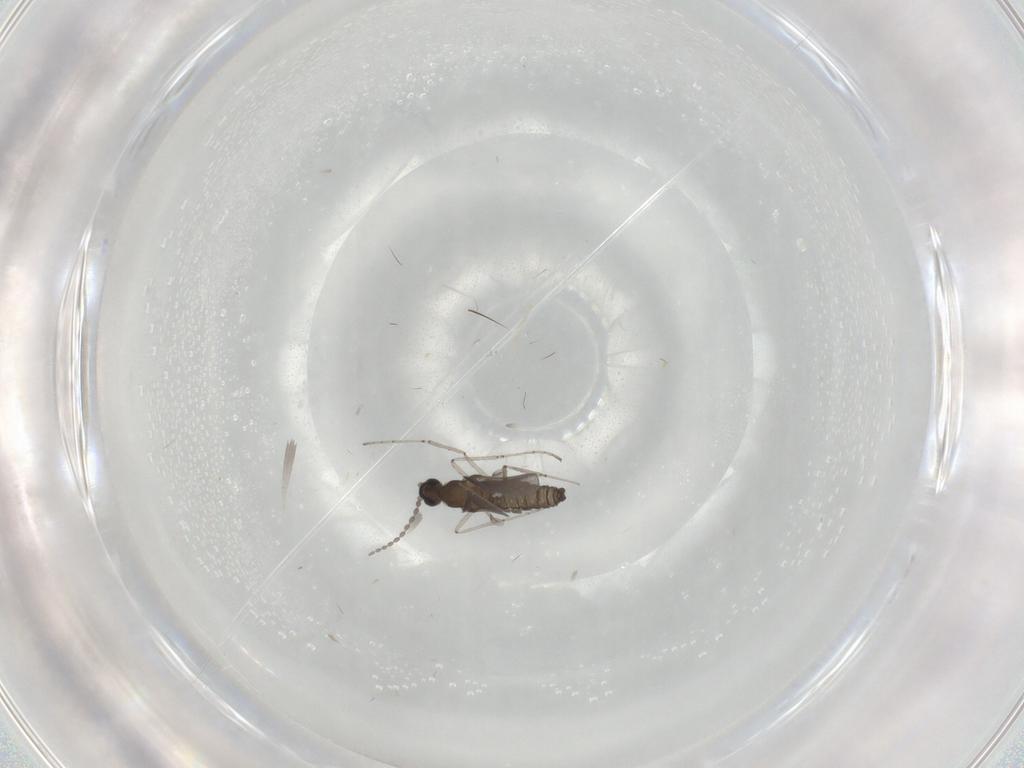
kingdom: Animalia
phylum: Arthropoda
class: Insecta
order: Diptera
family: Cecidomyiidae
